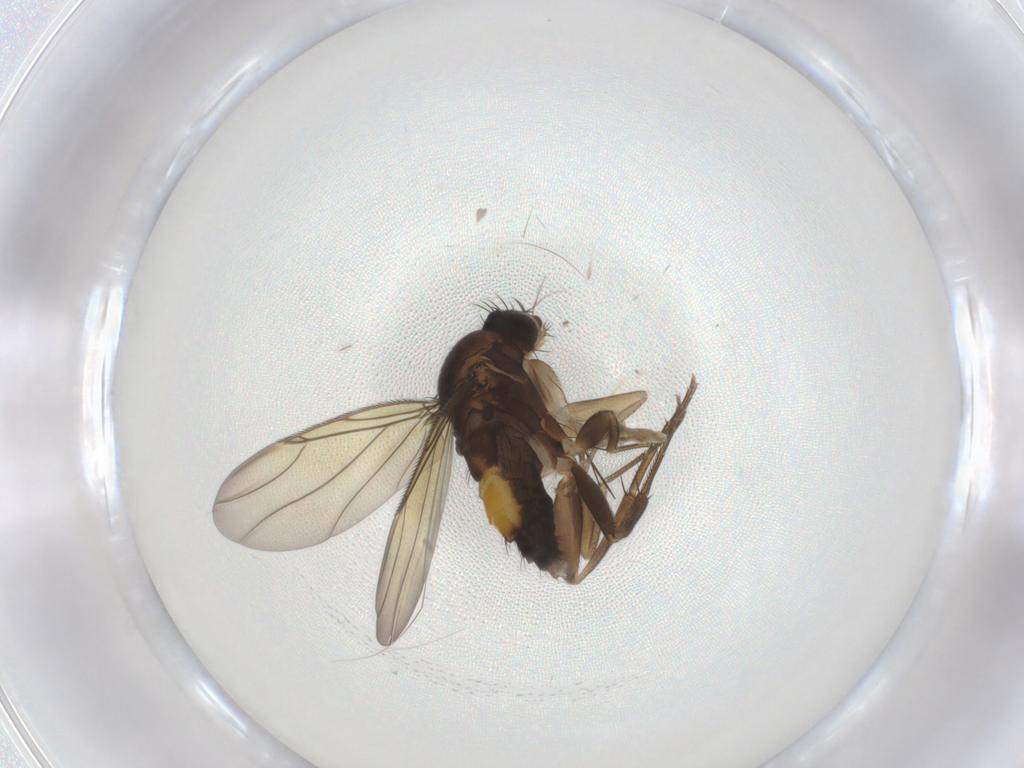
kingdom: Animalia
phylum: Arthropoda
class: Insecta
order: Diptera
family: Phoridae
